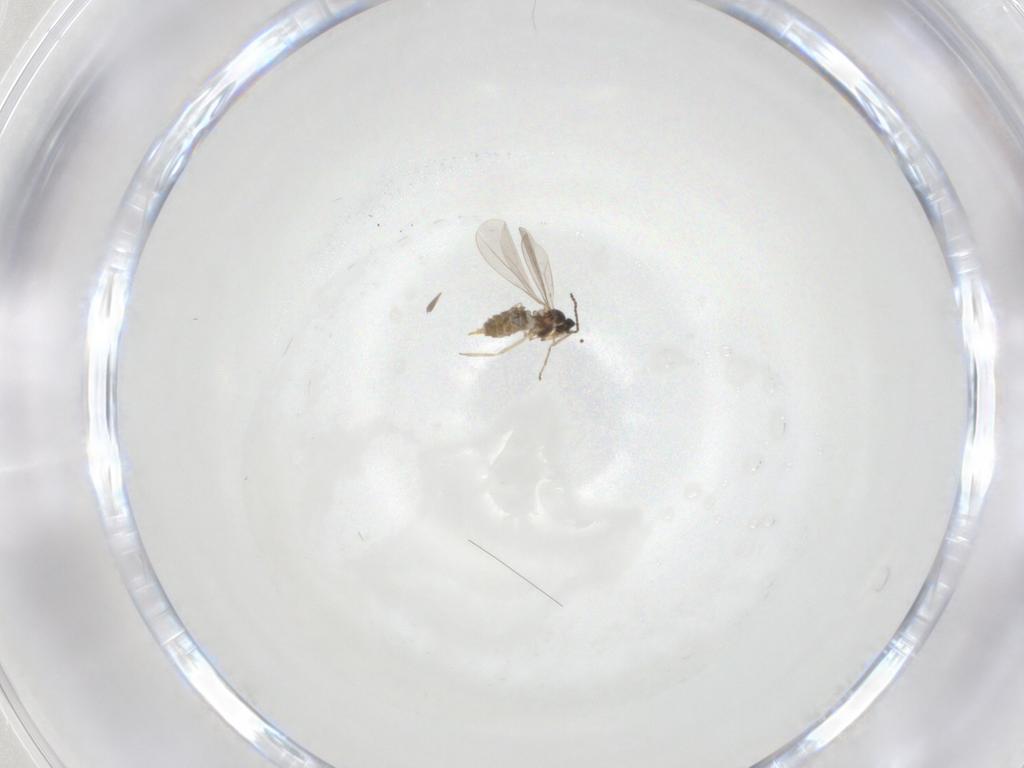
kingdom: Animalia
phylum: Arthropoda
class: Insecta
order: Diptera
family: Cecidomyiidae
